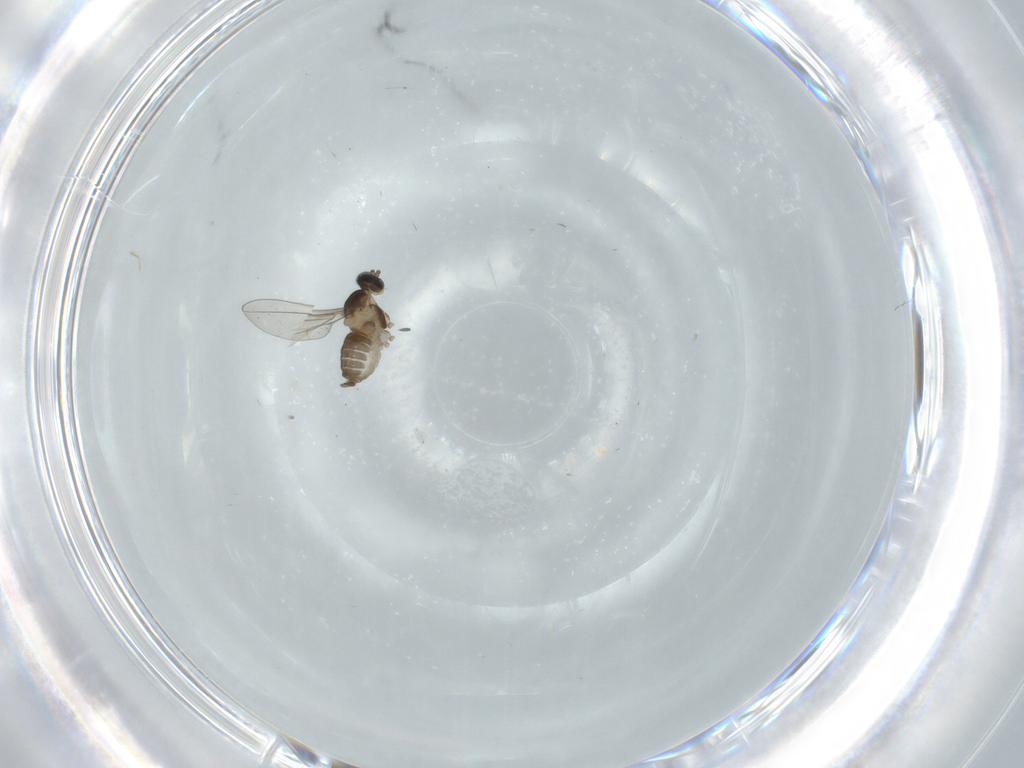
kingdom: Animalia
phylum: Arthropoda
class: Insecta
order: Diptera
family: Cecidomyiidae
